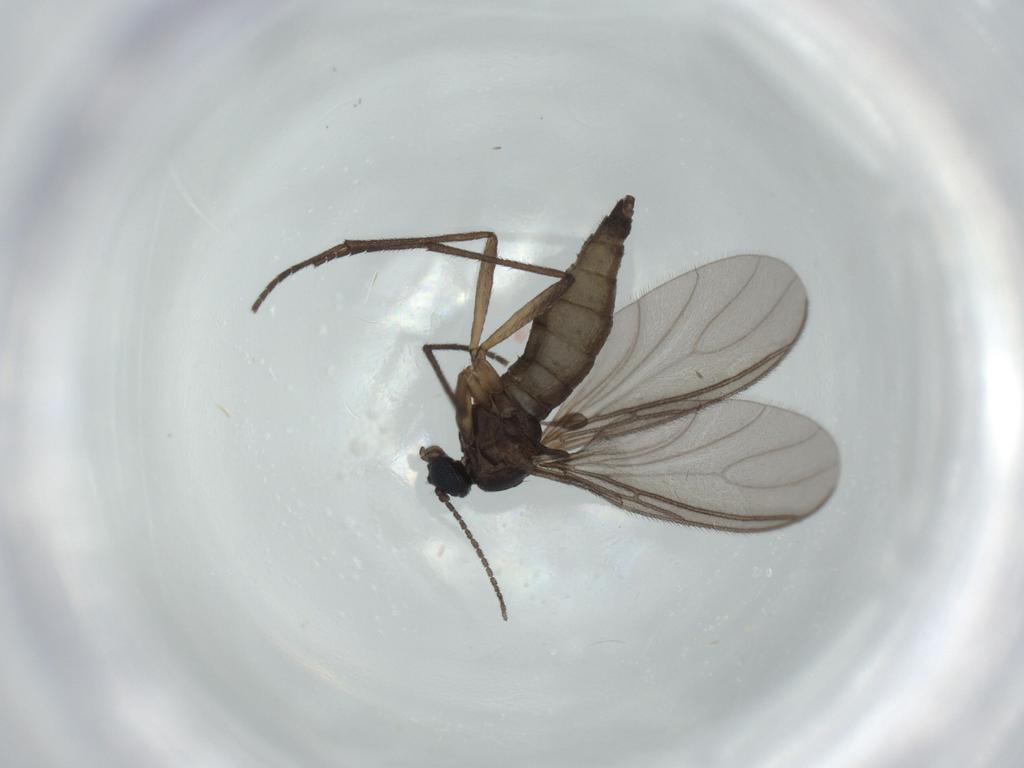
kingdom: Animalia
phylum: Arthropoda
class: Insecta
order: Diptera
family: Sciaridae
